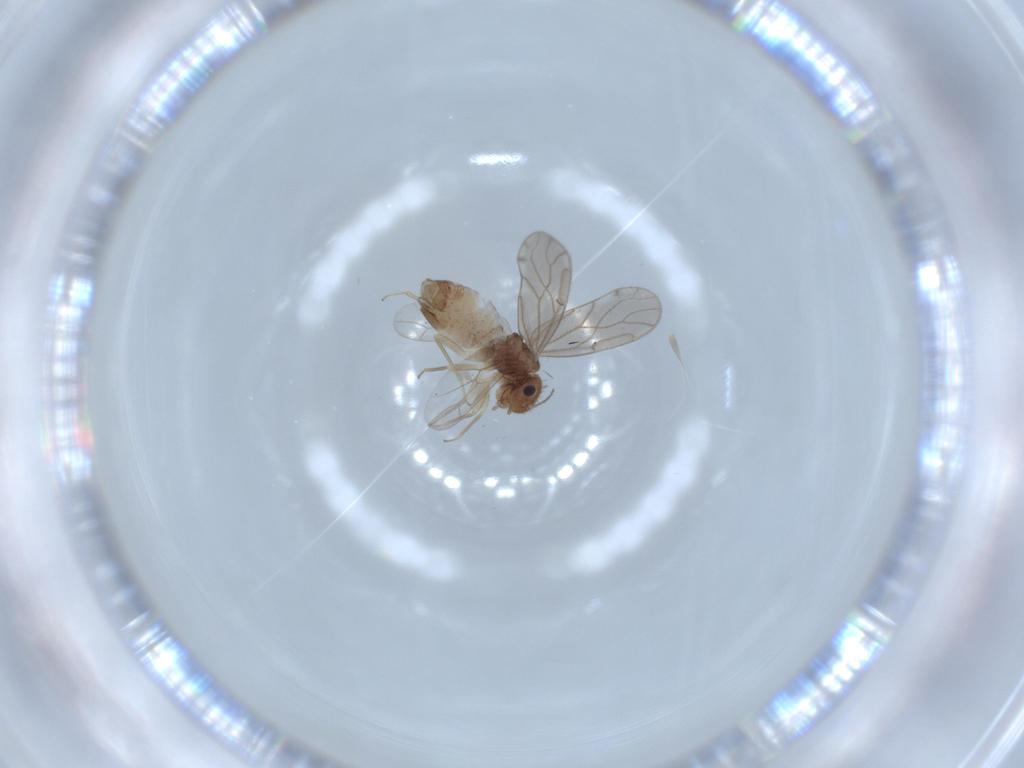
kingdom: Animalia
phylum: Arthropoda
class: Insecta
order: Psocodea
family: Ectopsocidae
